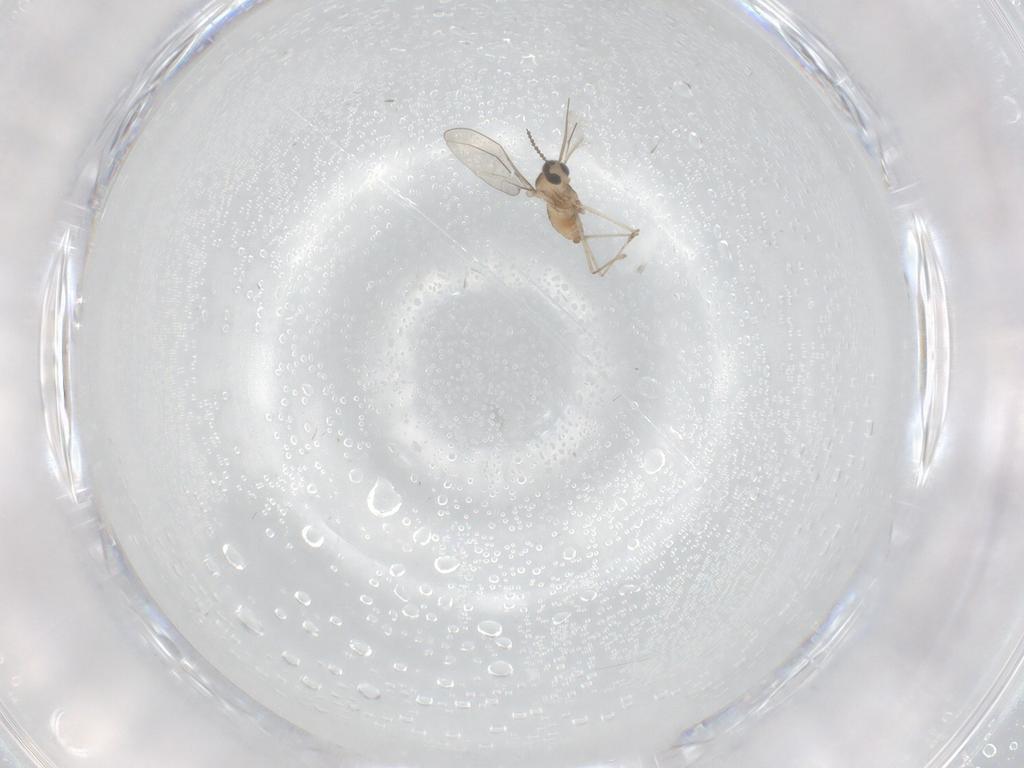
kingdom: Animalia
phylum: Arthropoda
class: Insecta
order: Diptera
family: Cecidomyiidae
